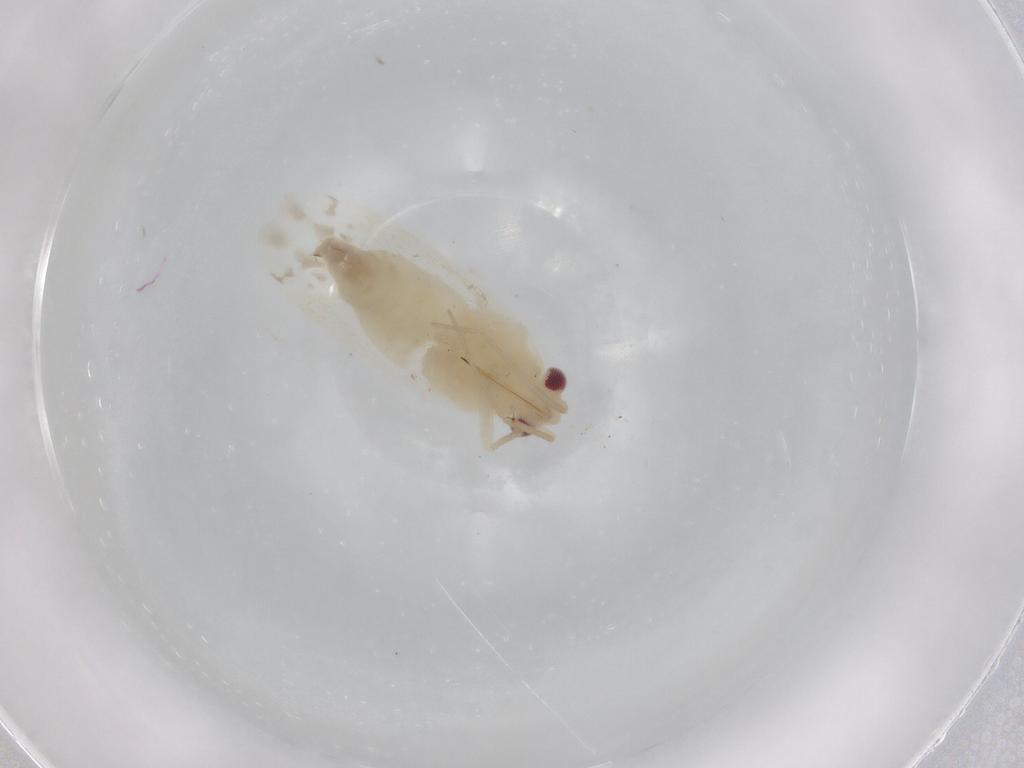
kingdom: Animalia
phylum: Arthropoda
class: Insecta
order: Hemiptera
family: Miridae
